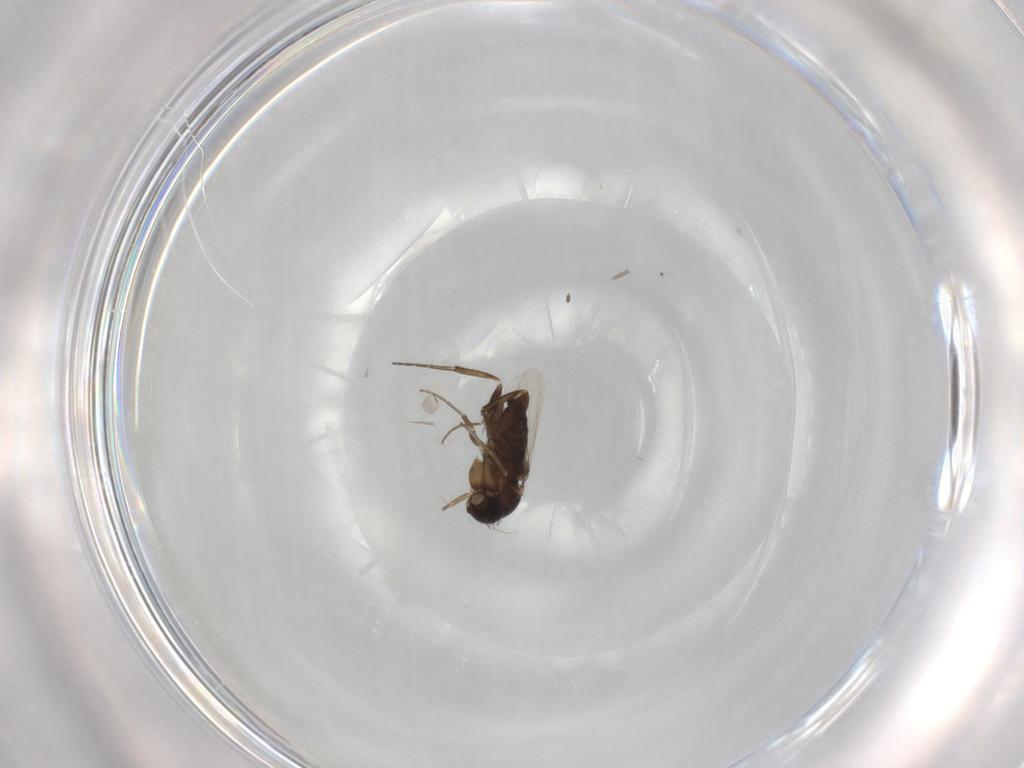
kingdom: Animalia
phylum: Arthropoda
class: Insecta
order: Diptera
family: Phoridae
